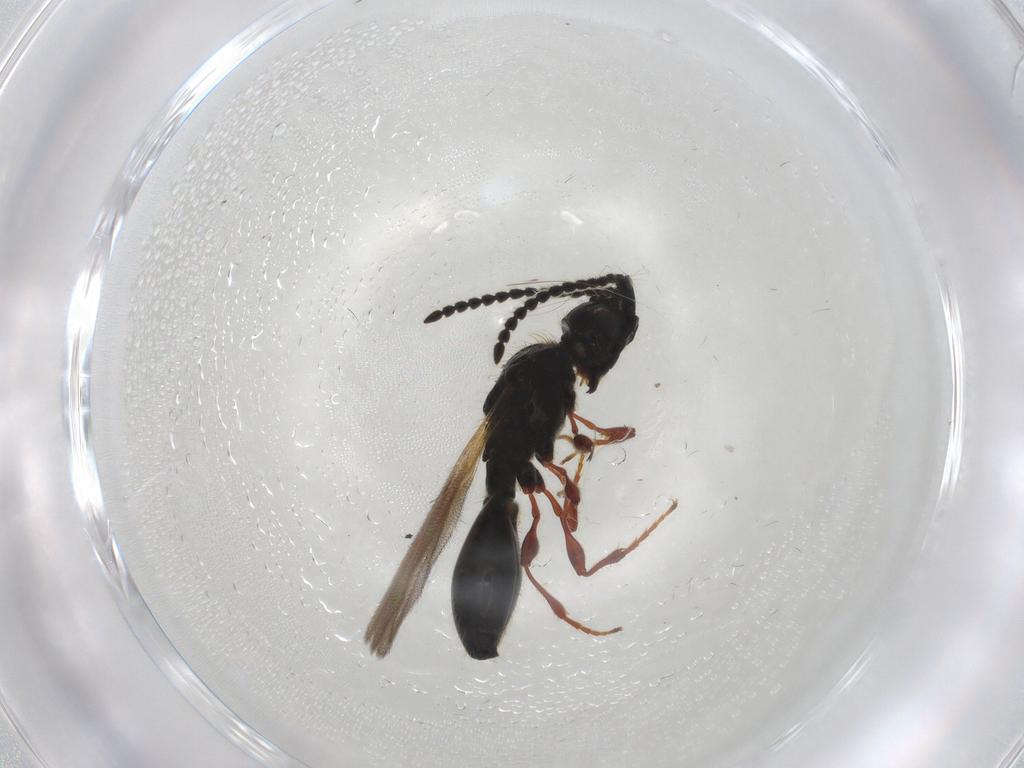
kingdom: Animalia
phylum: Arthropoda
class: Insecta
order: Hymenoptera
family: Diapriidae
